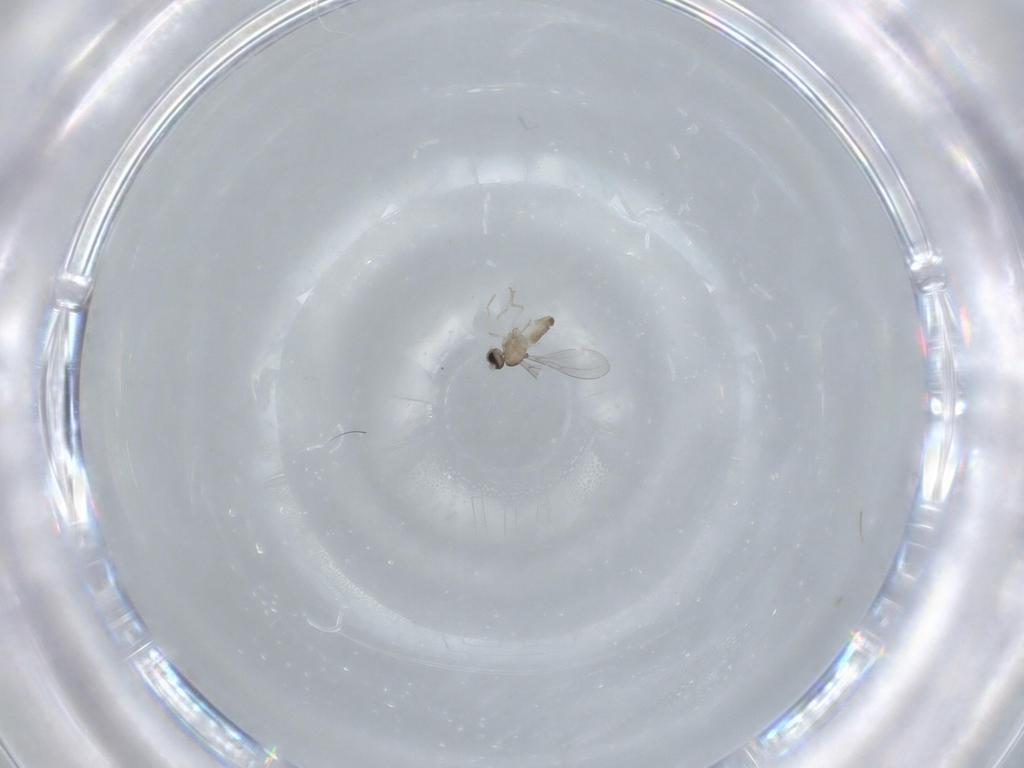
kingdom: Animalia
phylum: Arthropoda
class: Insecta
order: Diptera
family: Cecidomyiidae
